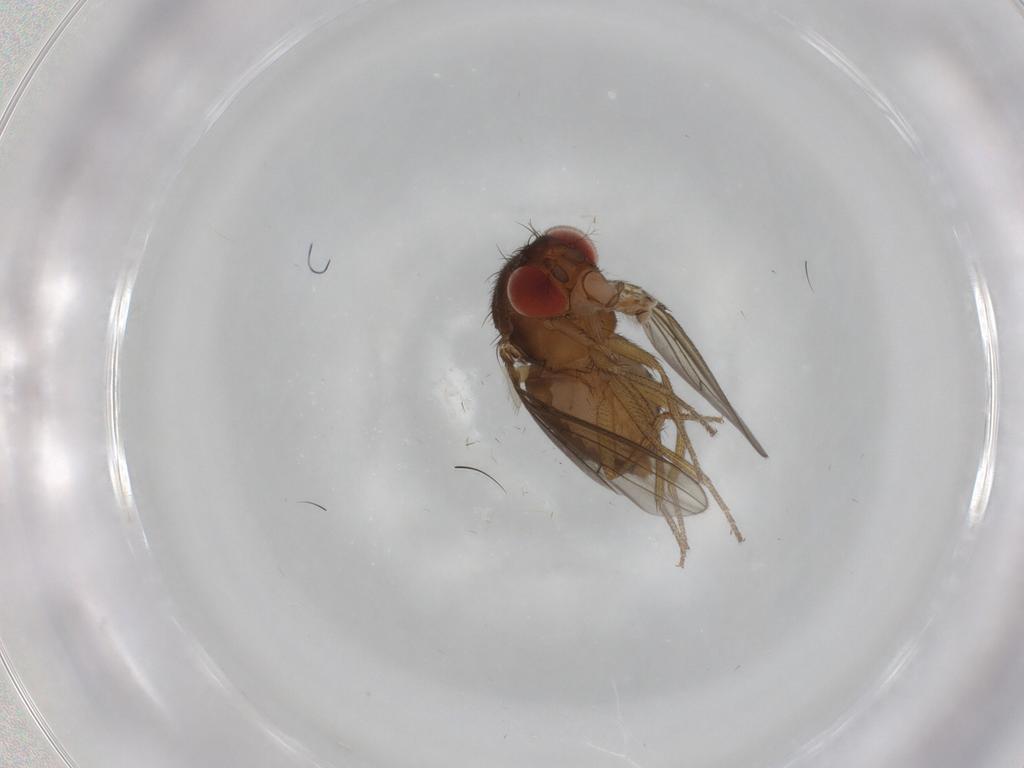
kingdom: Animalia
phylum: Arthropoda
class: Insecta
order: Diptera
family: Drosophilidae
